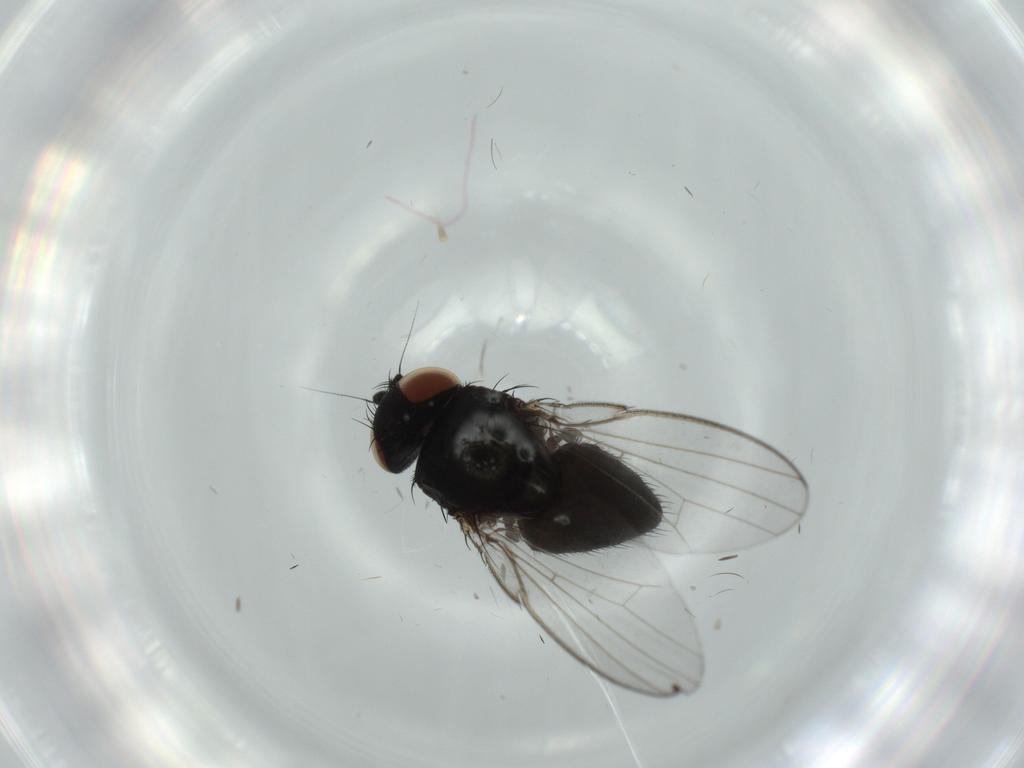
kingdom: Animalia
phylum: Arthropoda
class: Insecta
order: Diptera
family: Milichiidae
